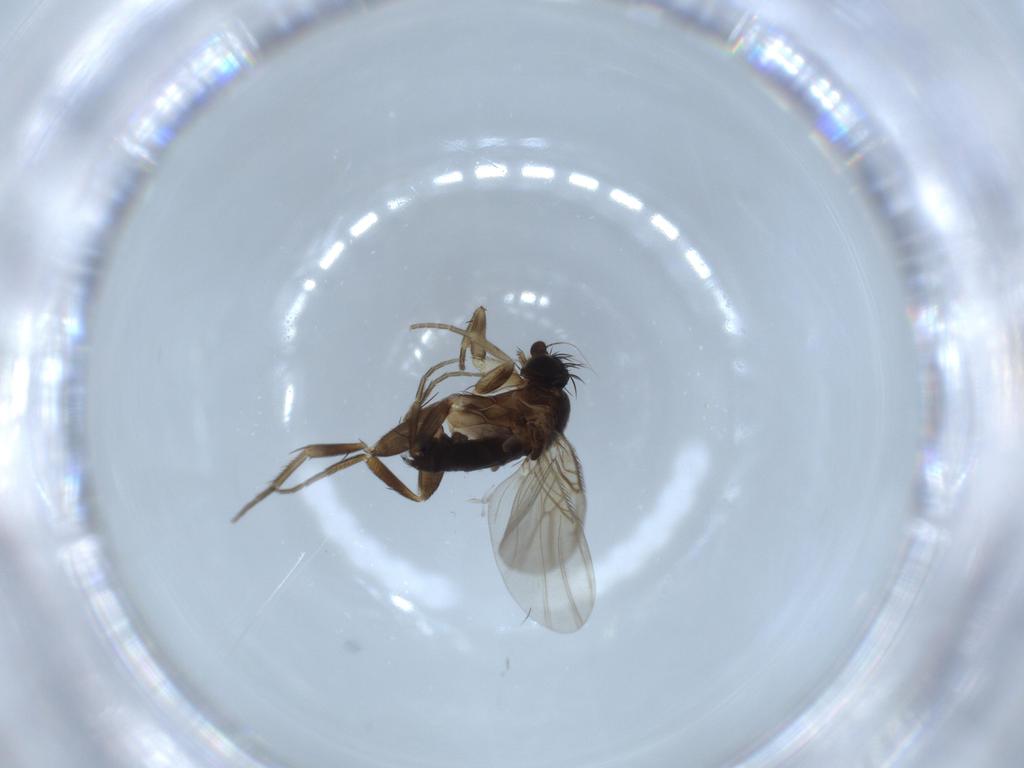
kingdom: Animalia
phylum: Arthropoda
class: Insecta
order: Diptera
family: Phoridae
